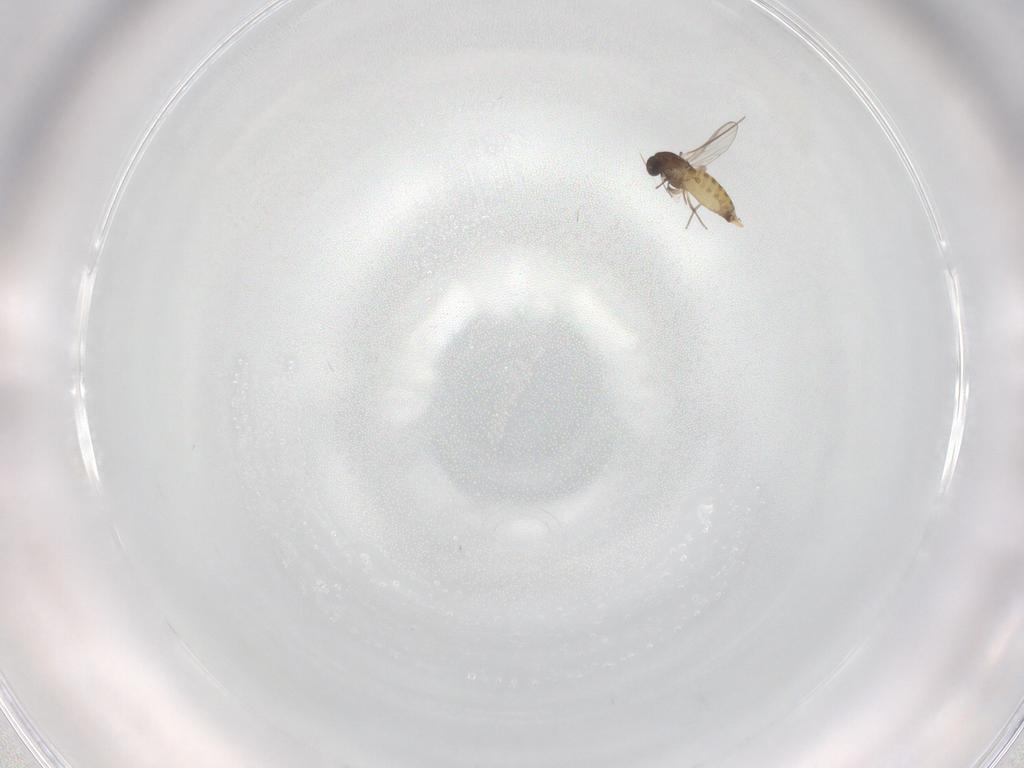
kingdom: Animalia
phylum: Arthropoda
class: Insecta
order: Diptera
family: Chironomidae
